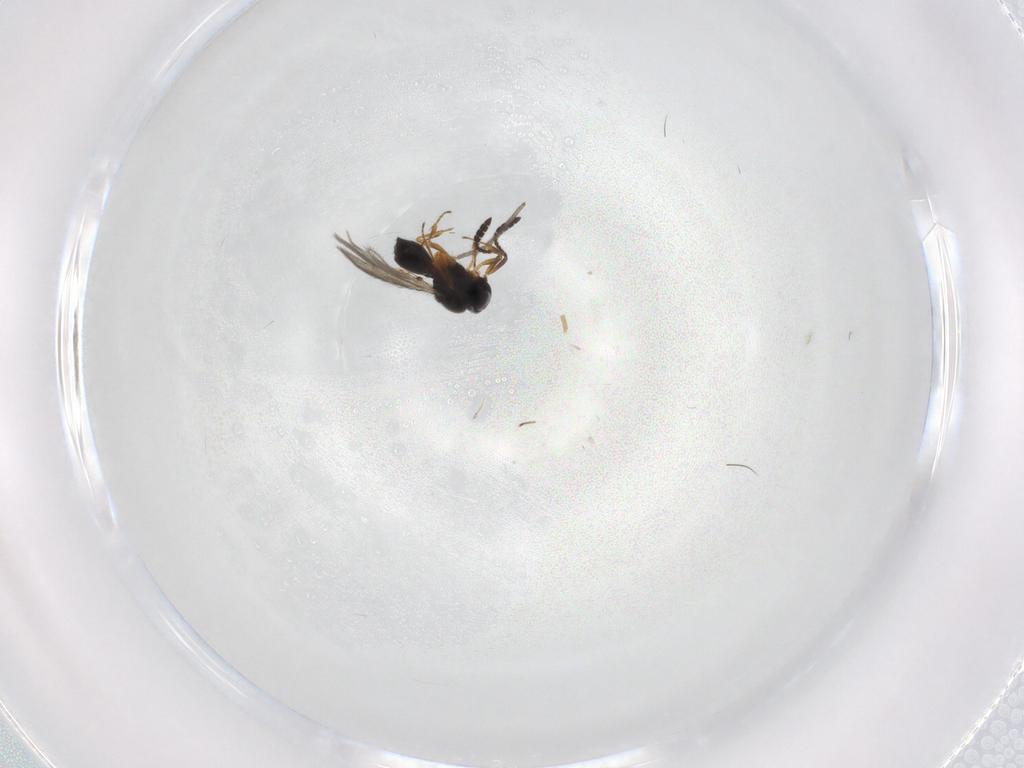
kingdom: Animalia
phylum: Arthropoda
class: Insecta
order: Hymenoptera
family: Scelionidae
